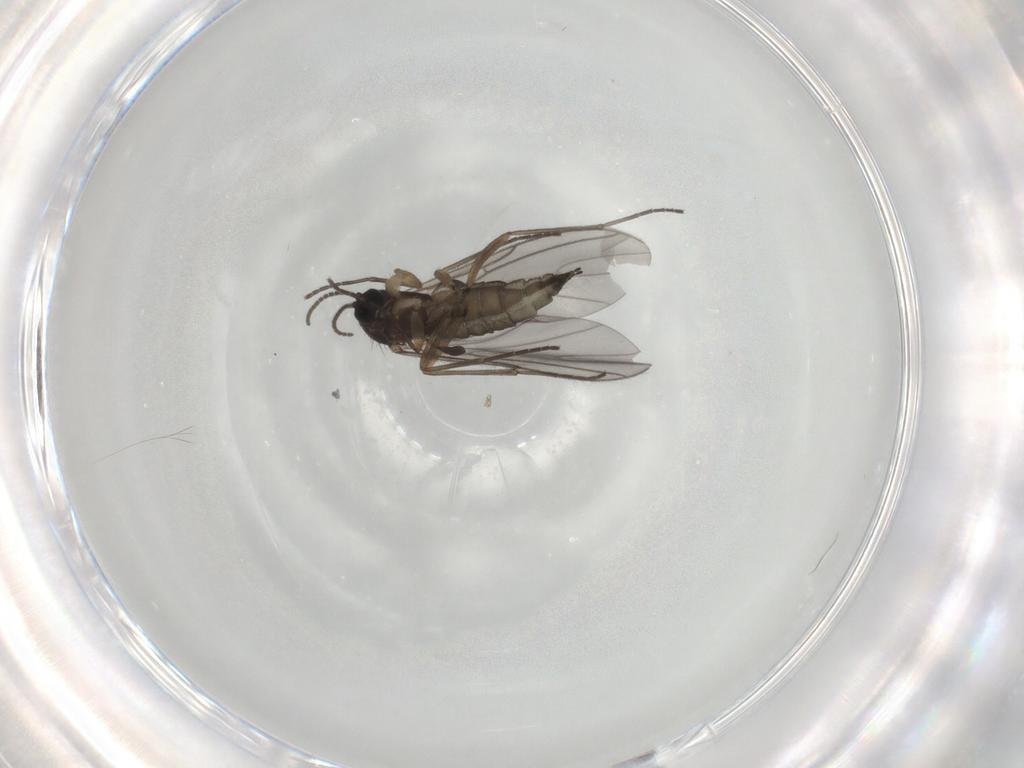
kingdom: Animalia
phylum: Arthropoda
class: Insecta
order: Diptera
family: Sciaridae
